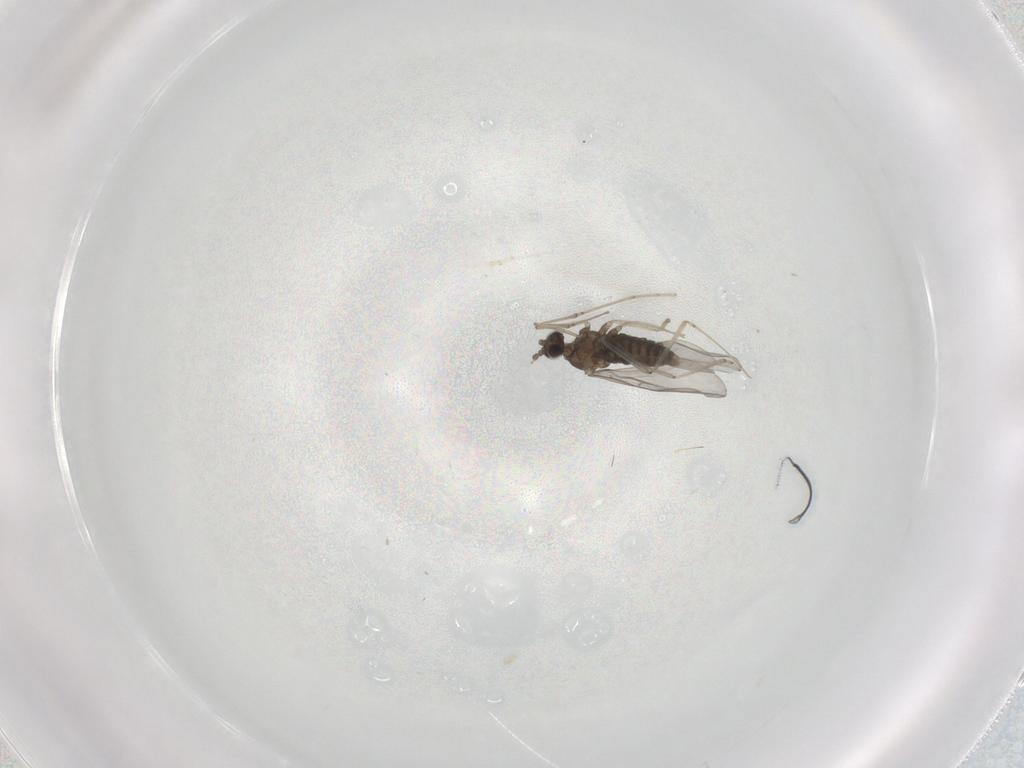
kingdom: Animalia
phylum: Arthropoda
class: Insecta
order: Diptera
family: Cecidomyiidae
